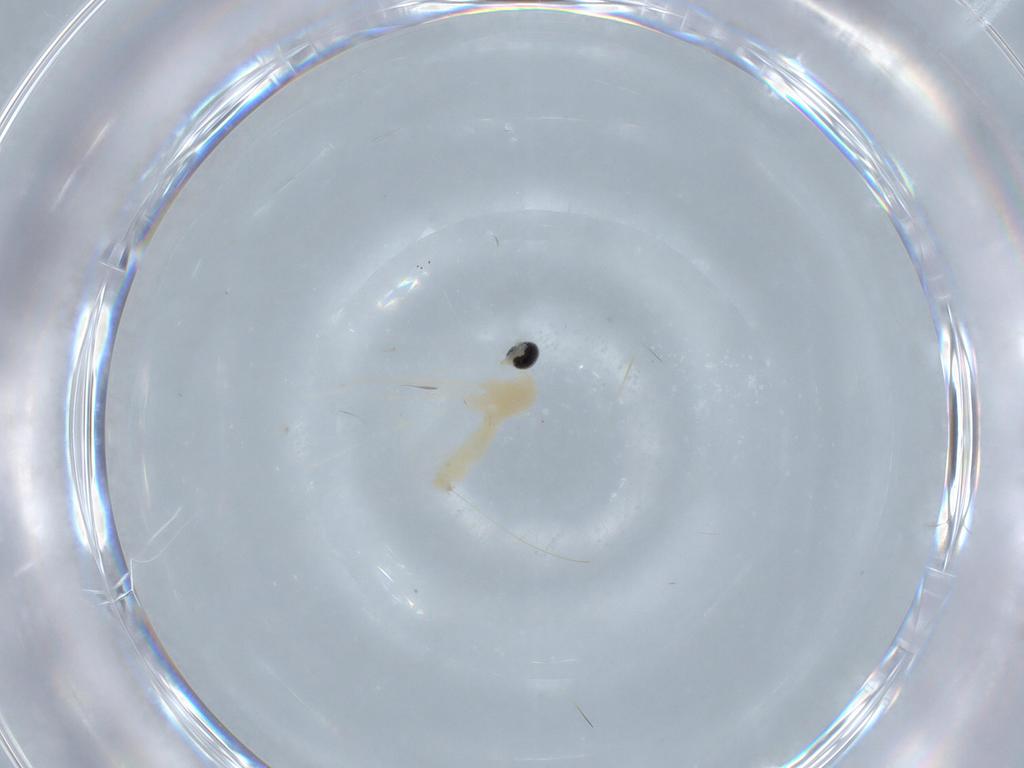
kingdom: Animalia
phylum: Arthropoda
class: Insecta
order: Diptera
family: Cecidomyiidae
